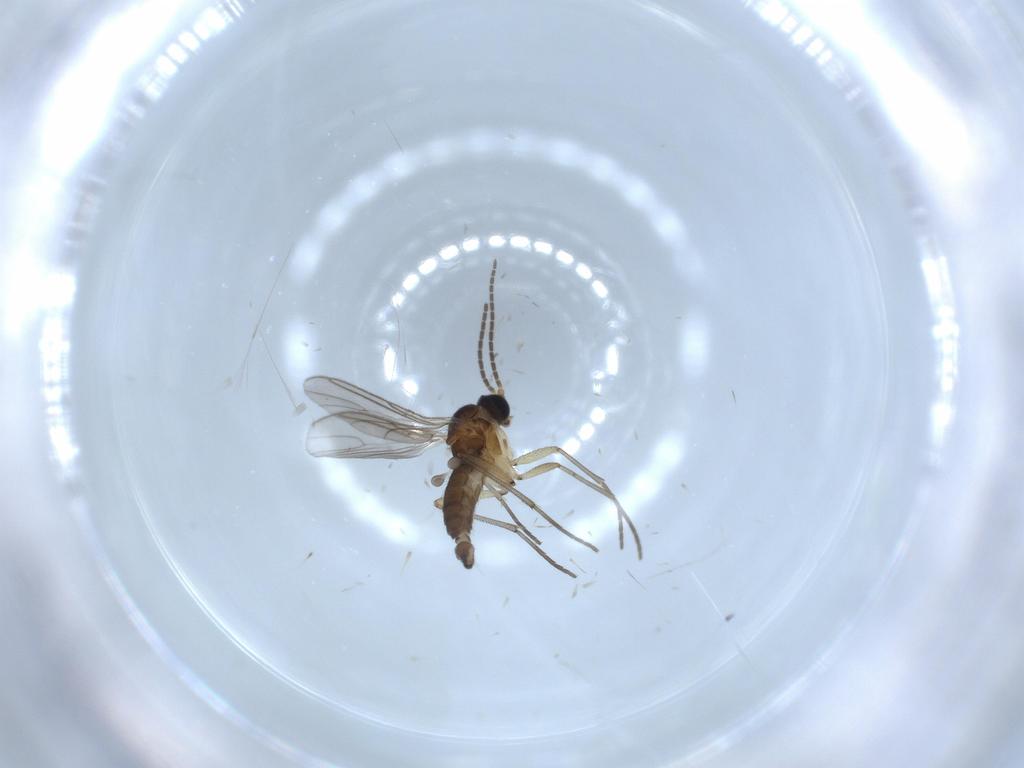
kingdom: Animalia
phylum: Arthropoda
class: Insecta
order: Diptera
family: Sciaridae
